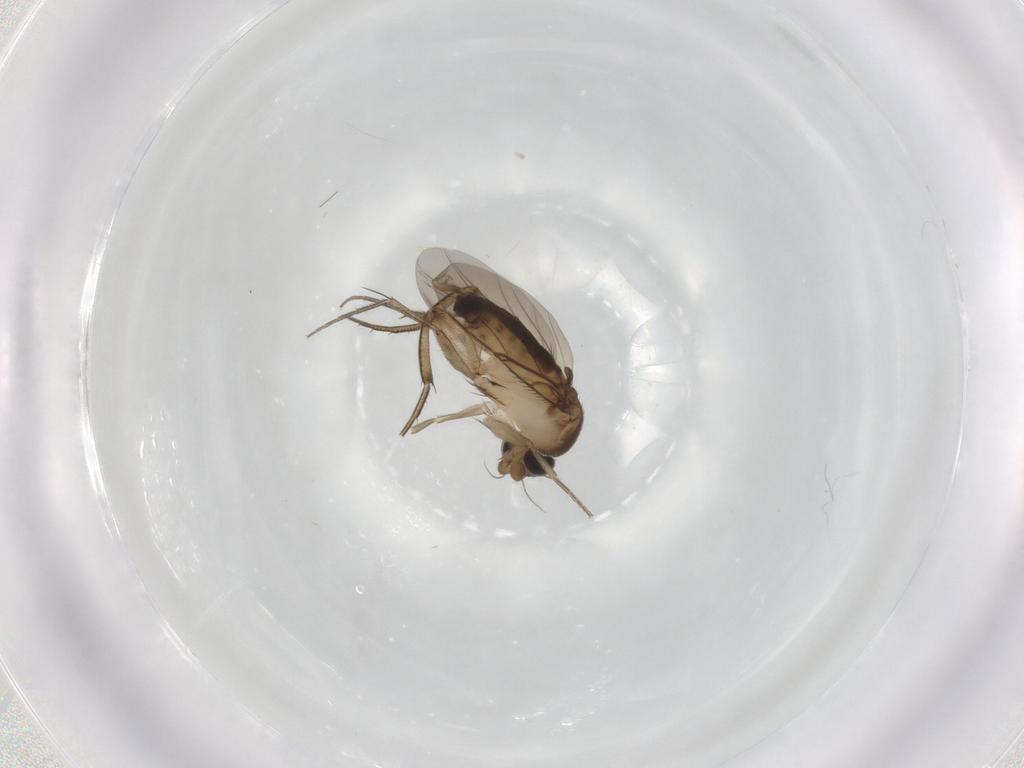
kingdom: Animalia
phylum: Arthropoda
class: Insecta
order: Diptera
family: Phoridae
